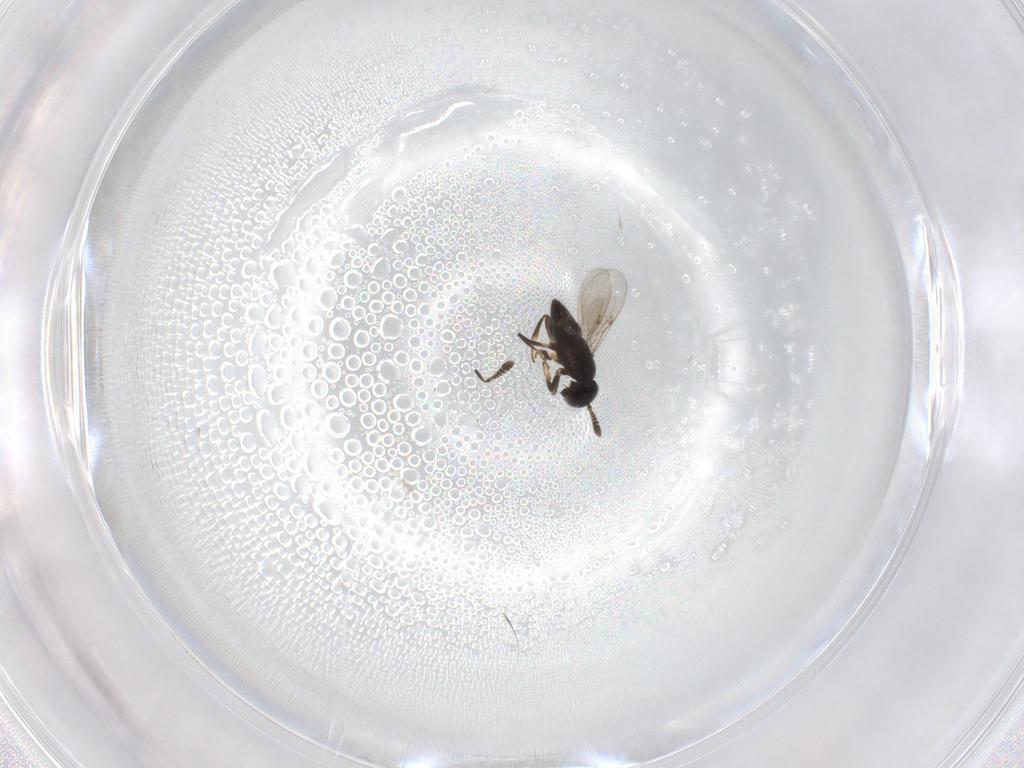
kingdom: Animalia
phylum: Arthropoda
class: Insecta
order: Hymenoptera
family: Encyrtidae
